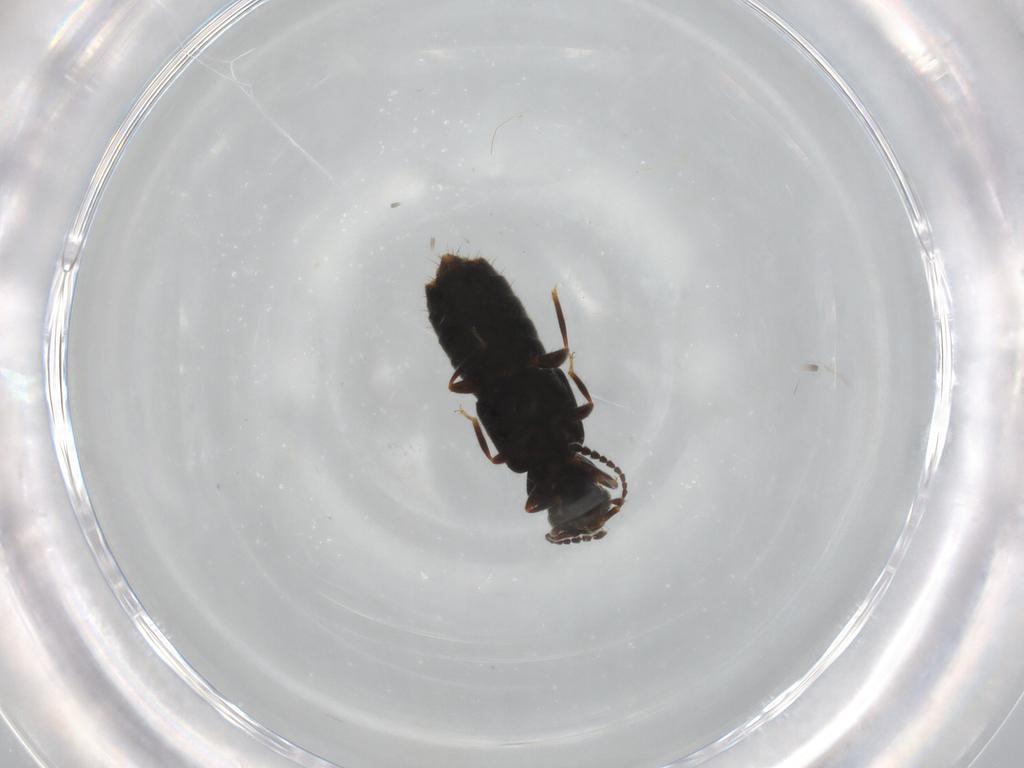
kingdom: Animalia
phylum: Arthropoda
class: Insecta
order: Coleoptera
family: Staphylinidae
